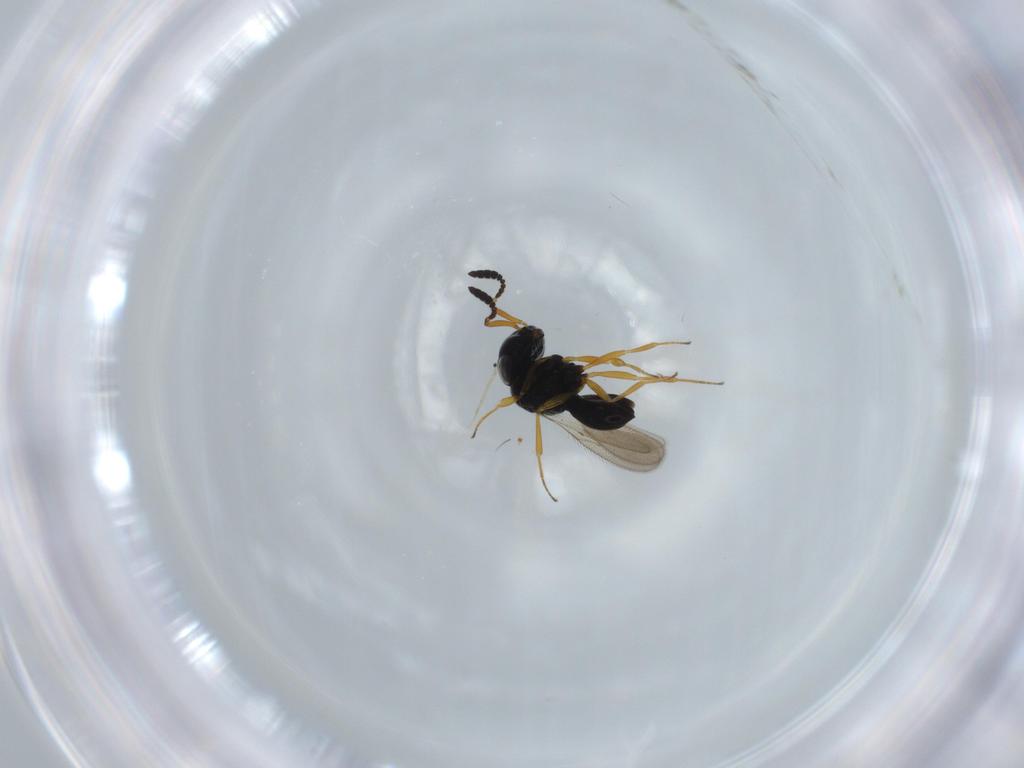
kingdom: Animalia
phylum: Arthropoda
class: Insecta
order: Hymenoptera
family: Scelionidae
